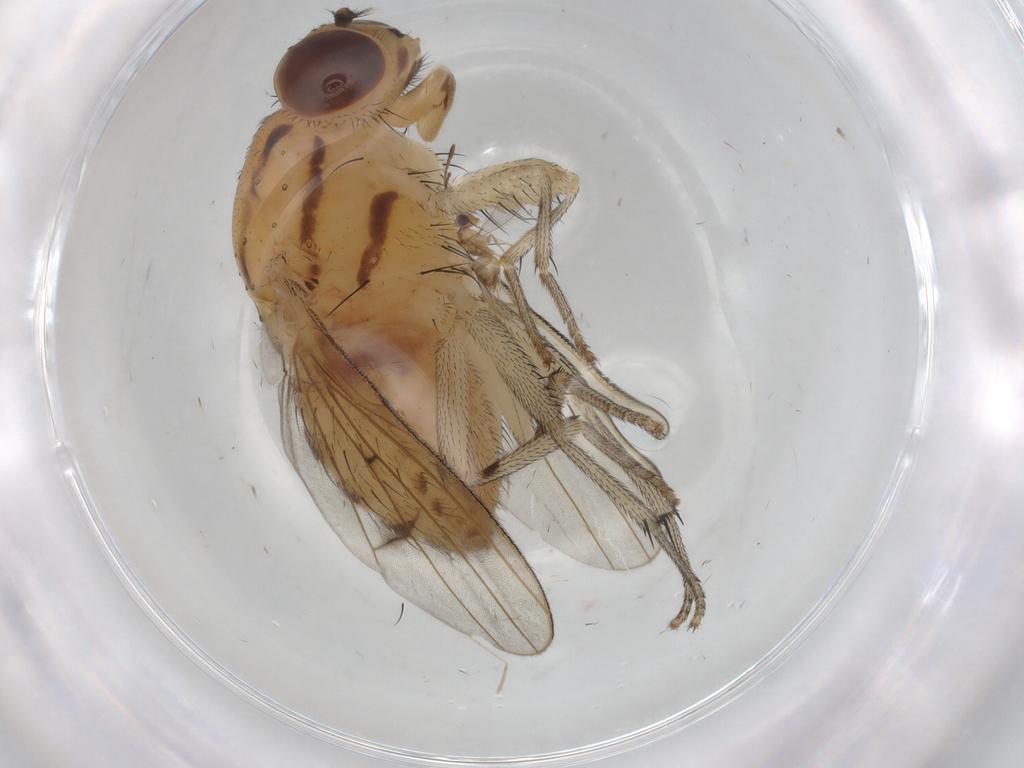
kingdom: Animalia
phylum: Arthropoda
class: Insecta
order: Diptera
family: Lauxaniidae
